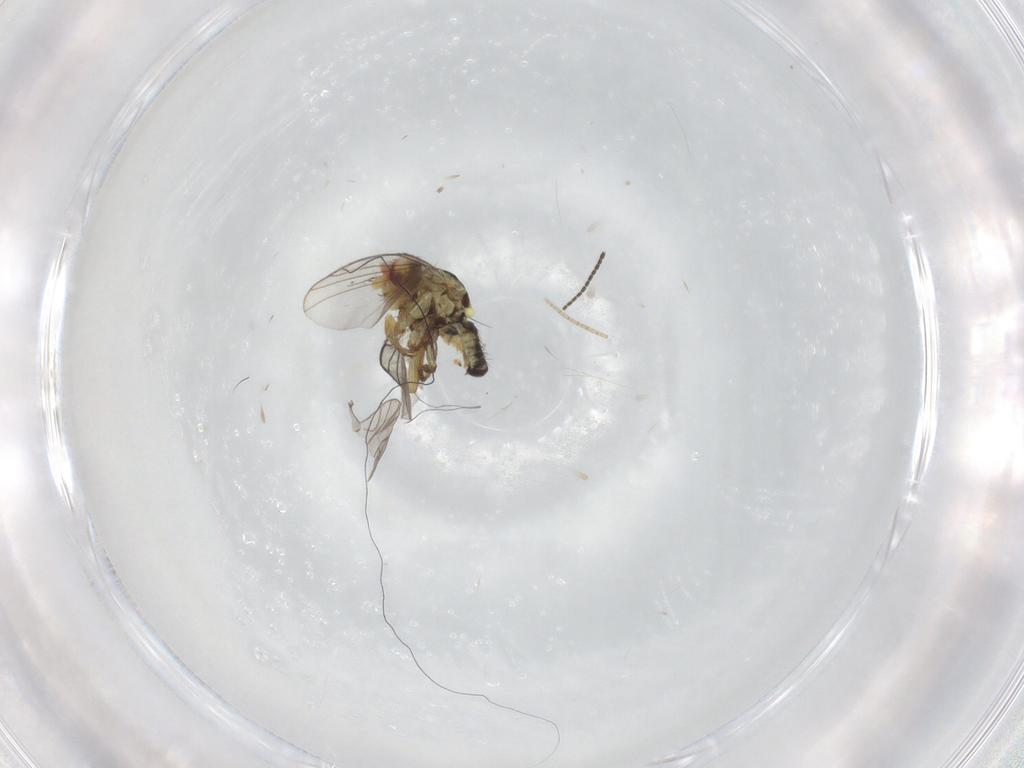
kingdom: Animalia
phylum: Arthropoda
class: Insecta
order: Diptera
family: Agromyzidae
